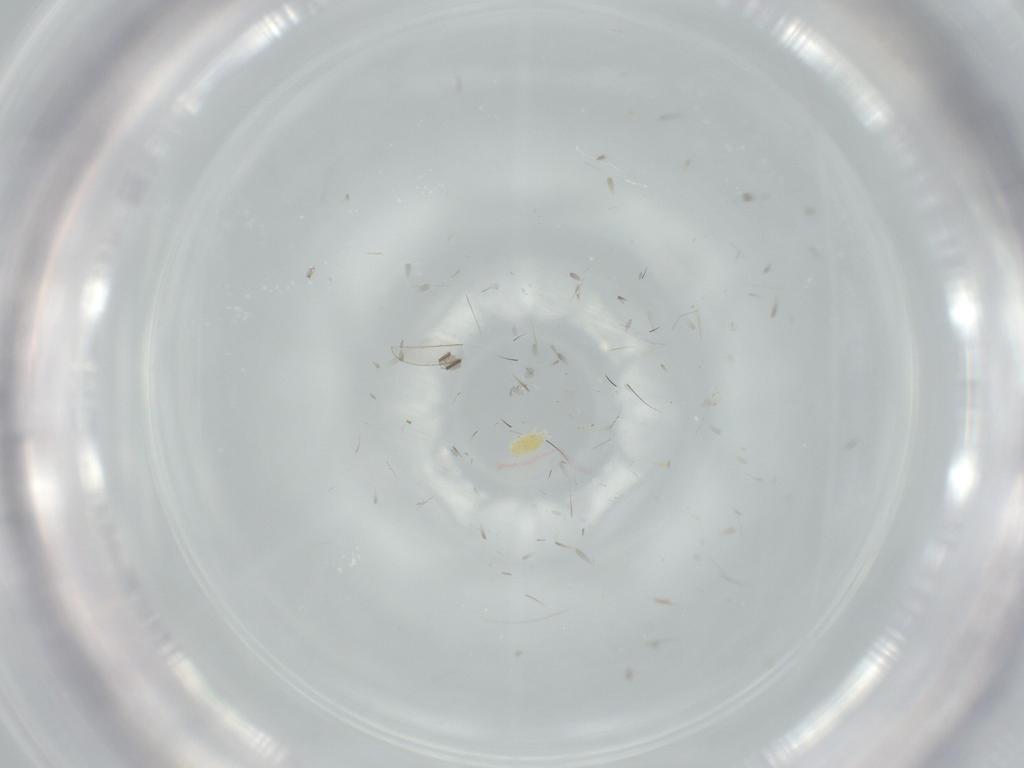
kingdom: Animalia
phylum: Arthropoda
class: Arachnida
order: Trombidiformes
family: Tydeidae
